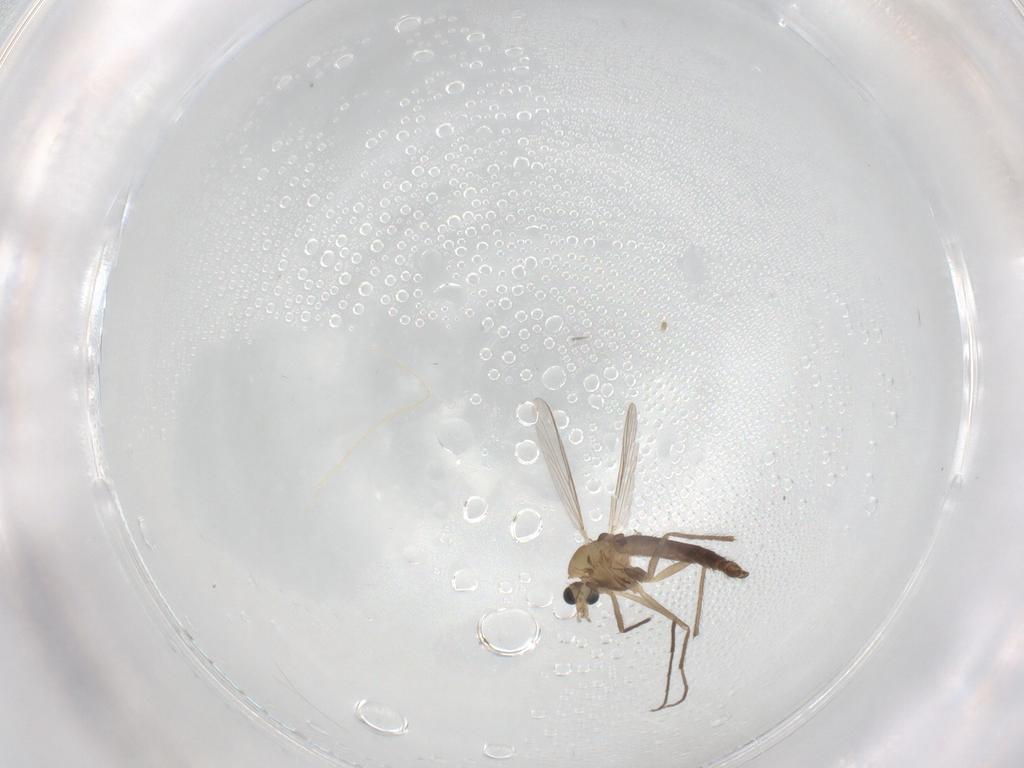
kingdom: Animalia
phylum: Arthropoda
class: Insecta
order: Diptera
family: Chironomidae
